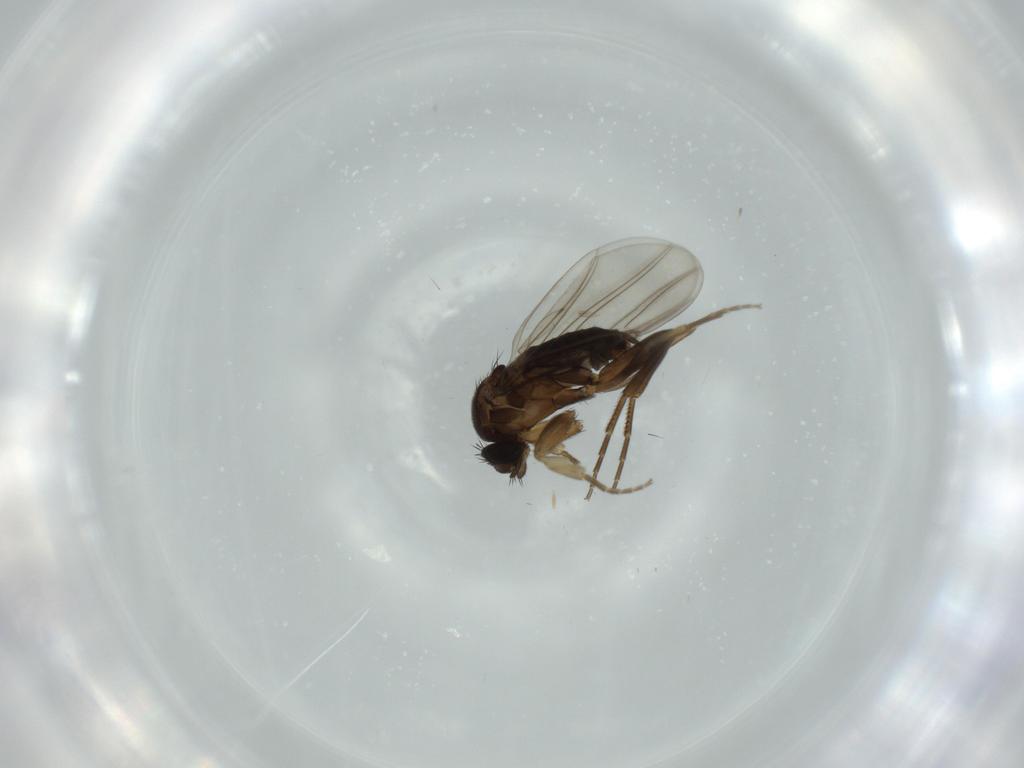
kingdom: Animalia
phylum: Arthropoda
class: Insecta
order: Diptera
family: Phoridae
